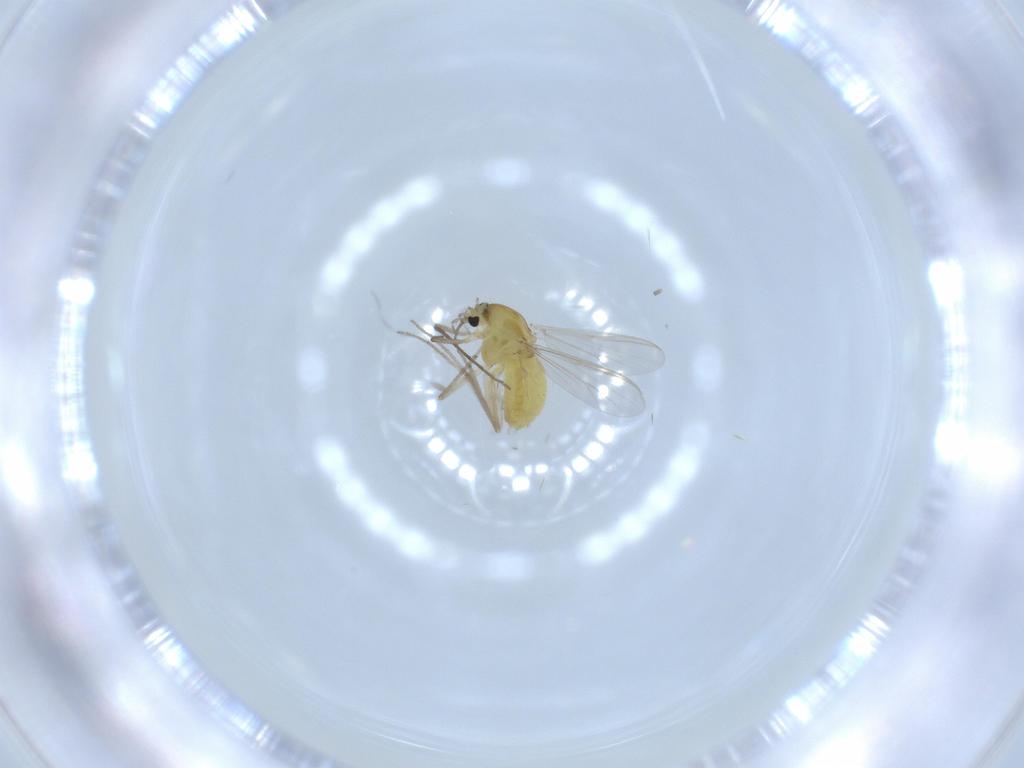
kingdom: Animalia
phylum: Arthropoda
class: Insecta
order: Diptera
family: Chironomidae
